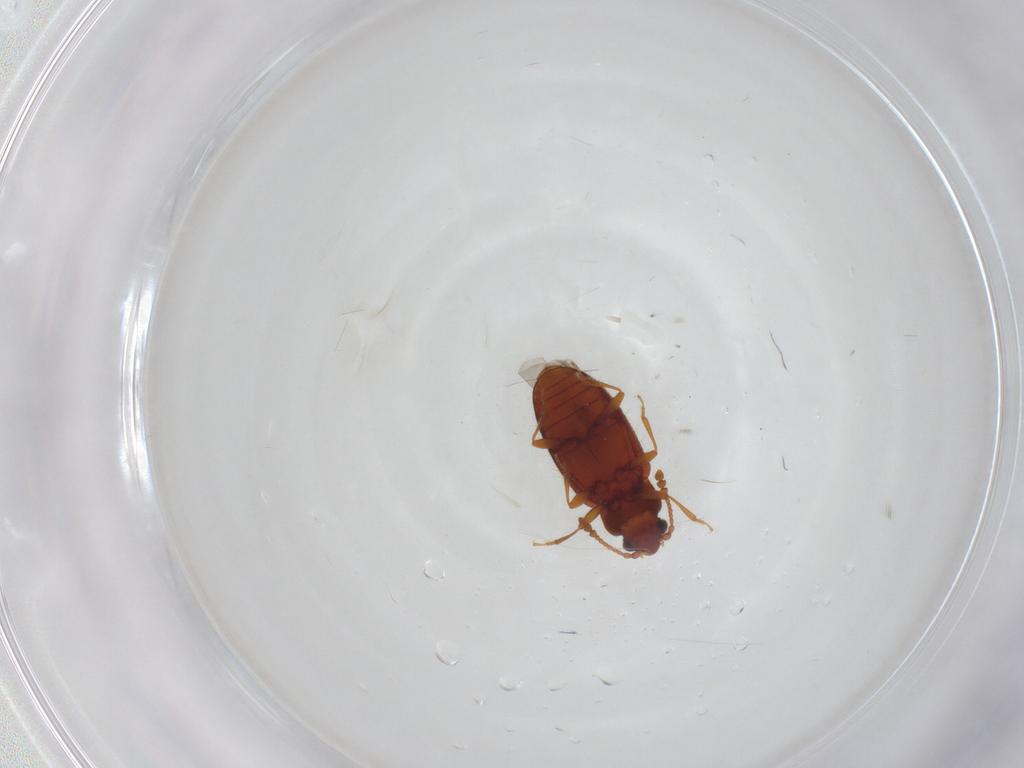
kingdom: Animalia
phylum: Arthropoda
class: Insecta
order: Coleoptera
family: Cryptophagidae
